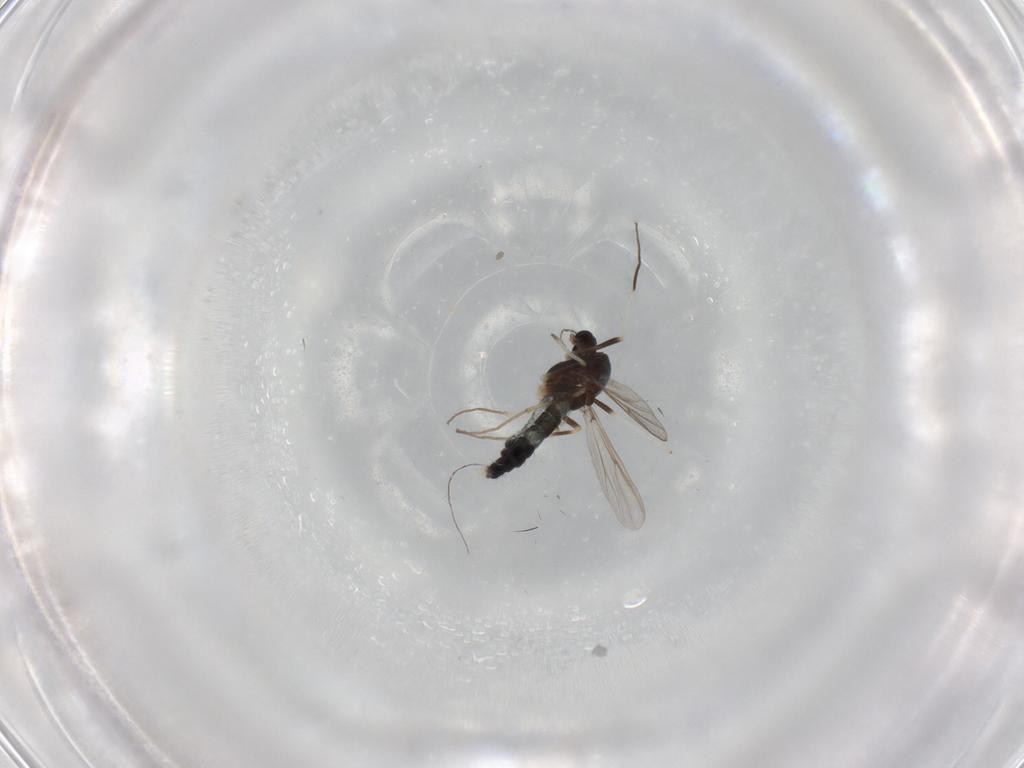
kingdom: Animalia
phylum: Arthropoda
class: Insecta
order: Diptera
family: Chironomidae
